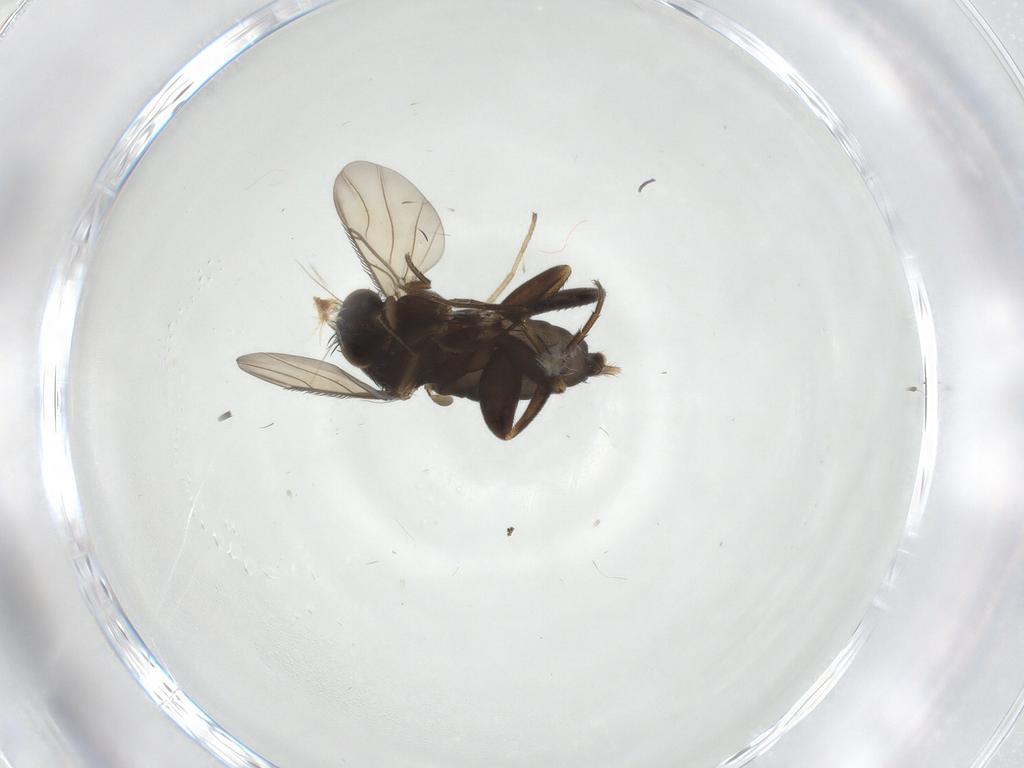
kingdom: Animalia
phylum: Arthropoda
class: Insecta
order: Diptera
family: Phoridae
